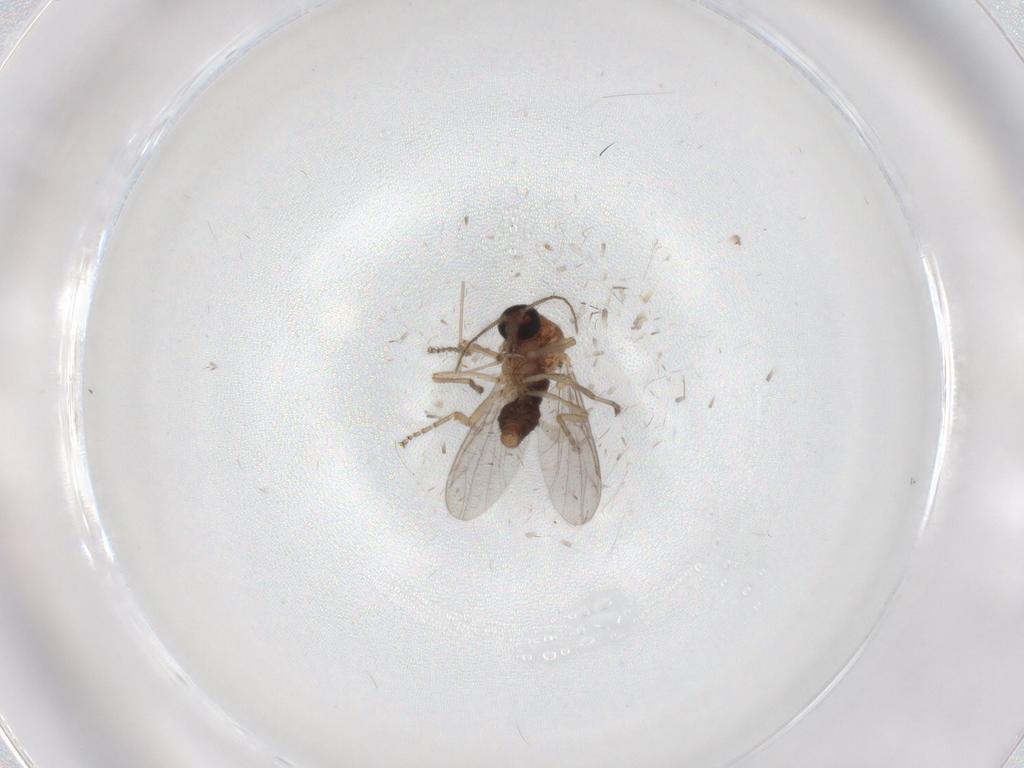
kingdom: Animalia
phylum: Arthropoda
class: Insecta
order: Diptera
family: Ceratopogonidae
